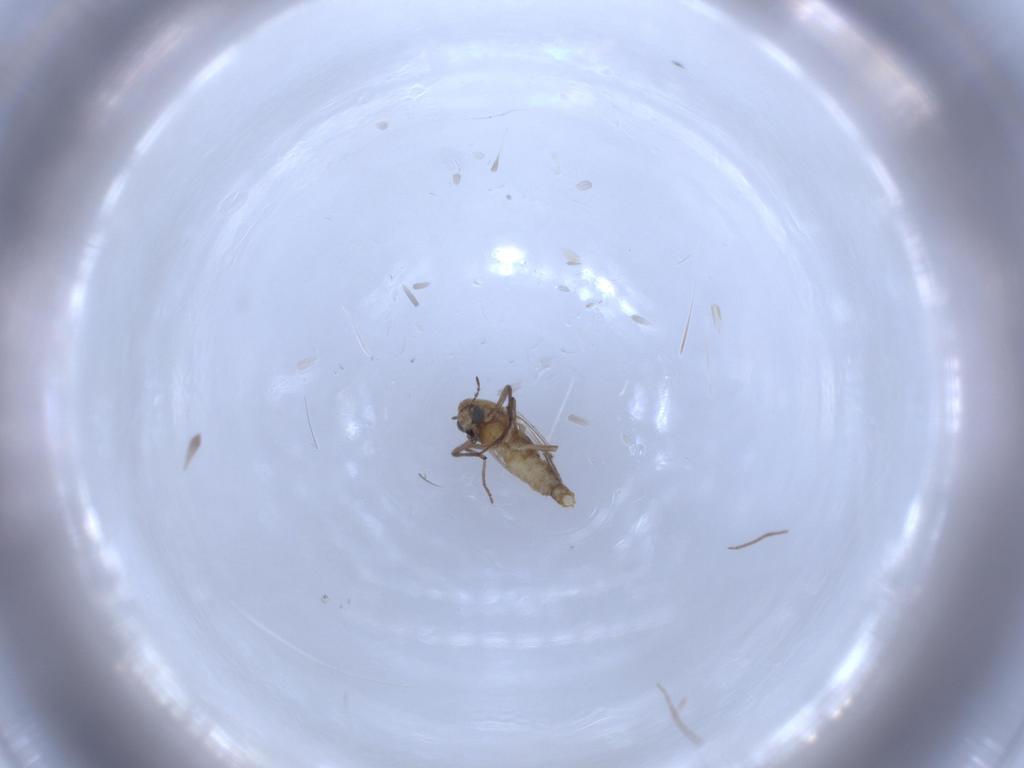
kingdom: Animalia
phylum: Arthropoda
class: Insecta
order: Diptera
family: Chironomidae
